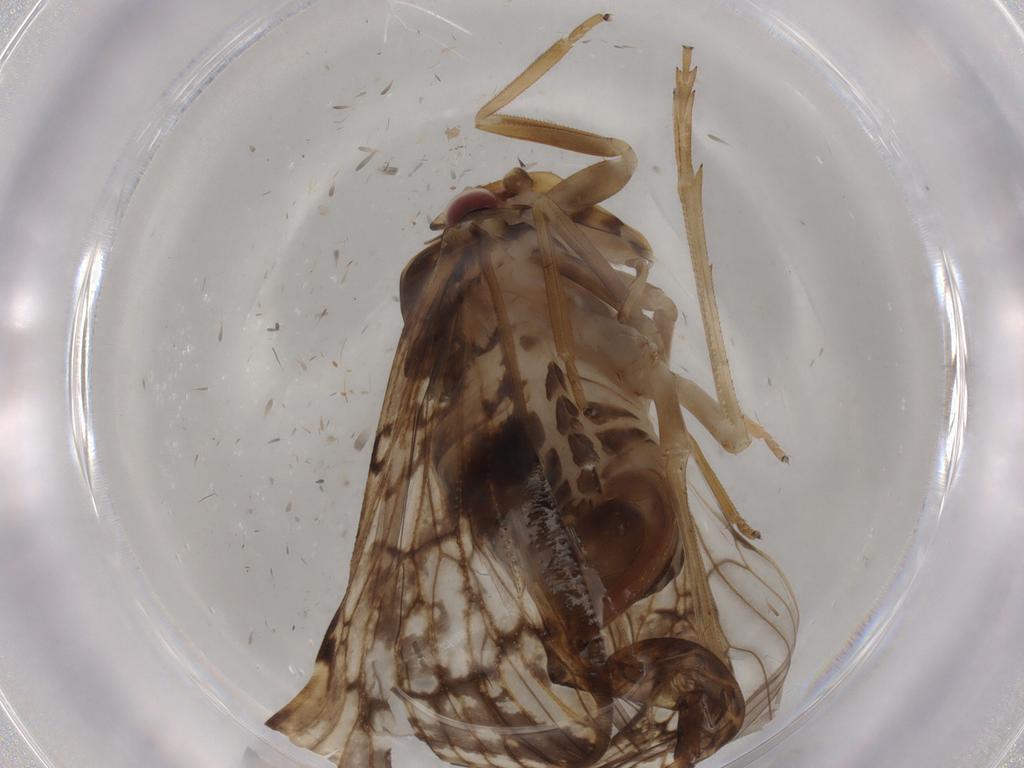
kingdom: Animalia
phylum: Arthropoda
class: Insecta
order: Hemiptera
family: Cixiidae
